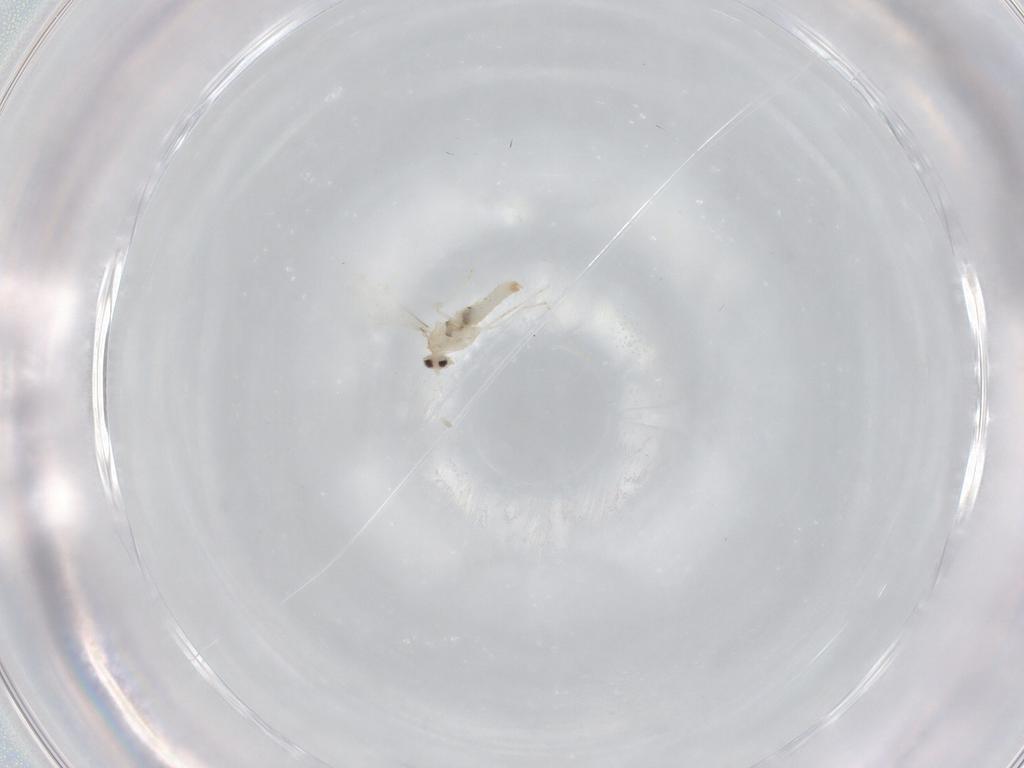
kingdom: Animalia
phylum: Arthropoda
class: Insecta
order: Diptera
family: Cecidomyiidae
